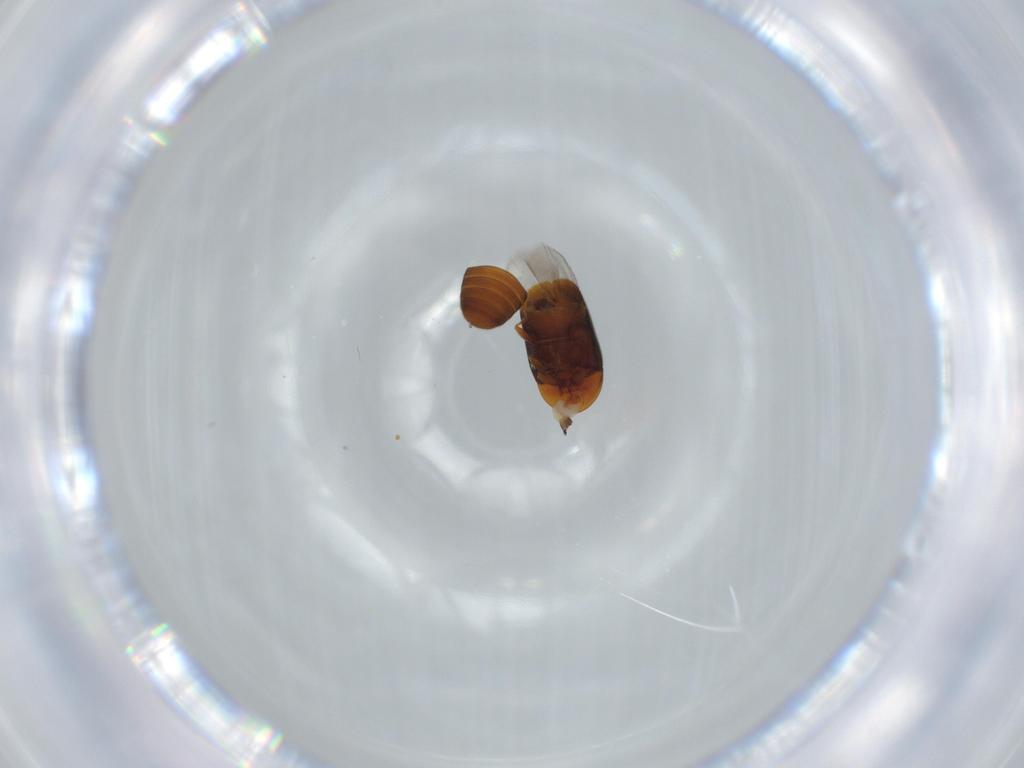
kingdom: Animalia
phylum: Arthropoda
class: Insecta
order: Coleoptera
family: Corylophidae
